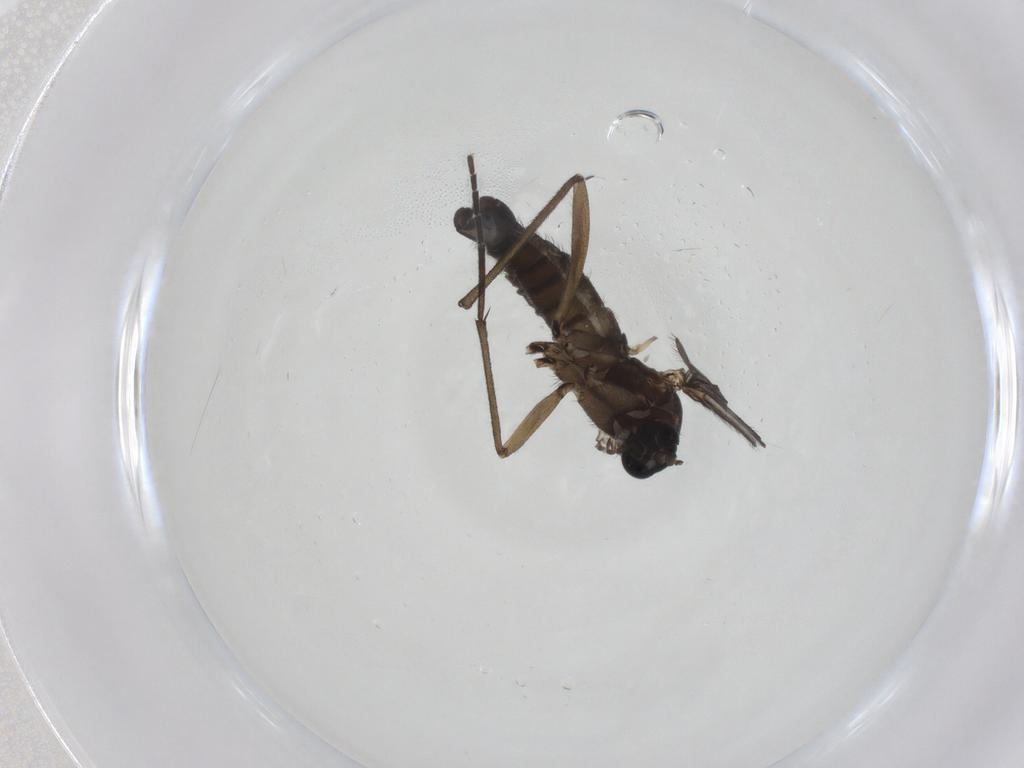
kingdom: Animalia
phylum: Arthropoda
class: Insecta
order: Diptera
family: Sciaridae
